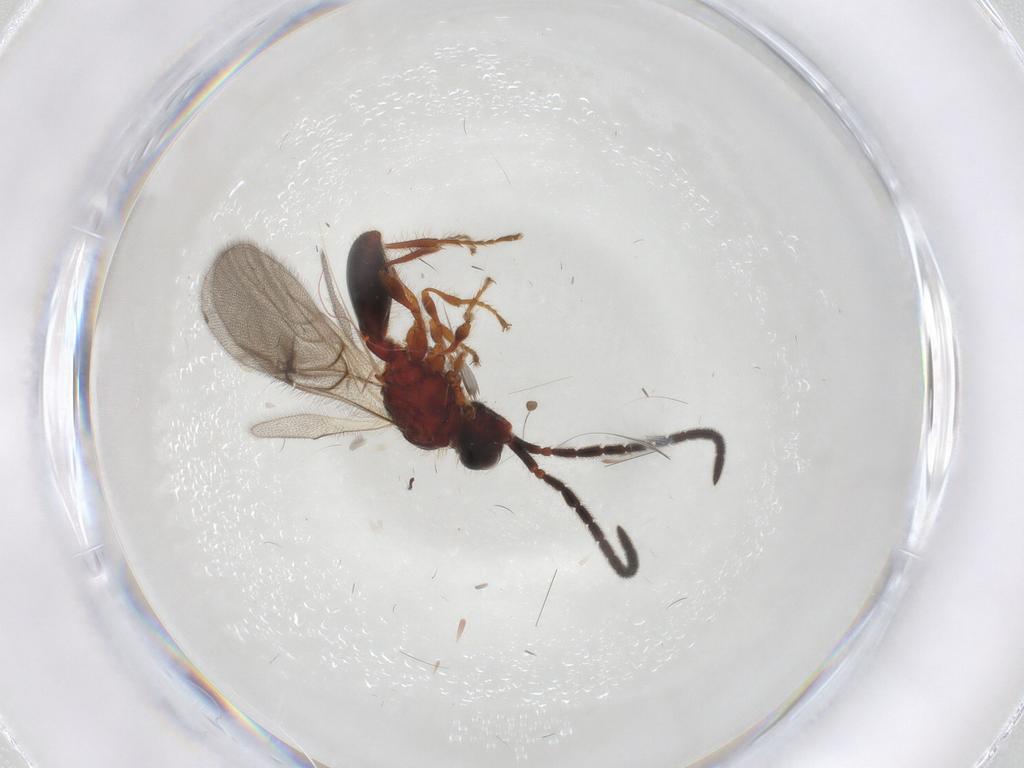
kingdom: Animalia
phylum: Arthropoda
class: Insecta
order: Hymenoptera
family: Diapriidae
